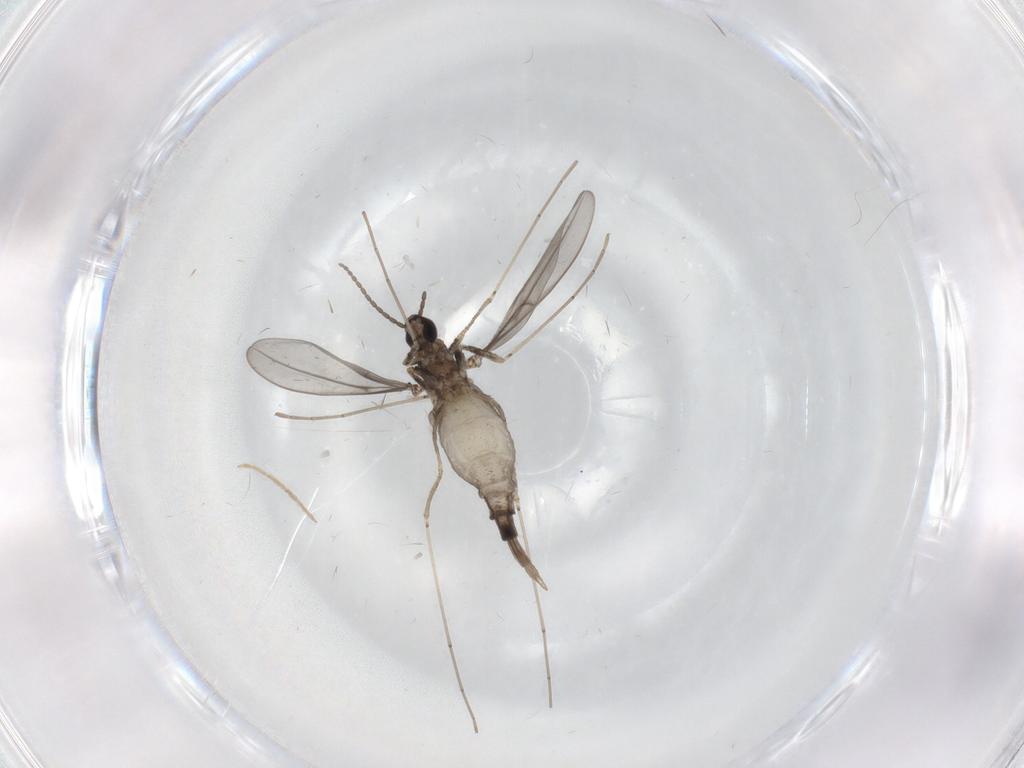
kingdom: Animalia
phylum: Arthropoda
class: Insecta
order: Diptera
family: Chironomidae
